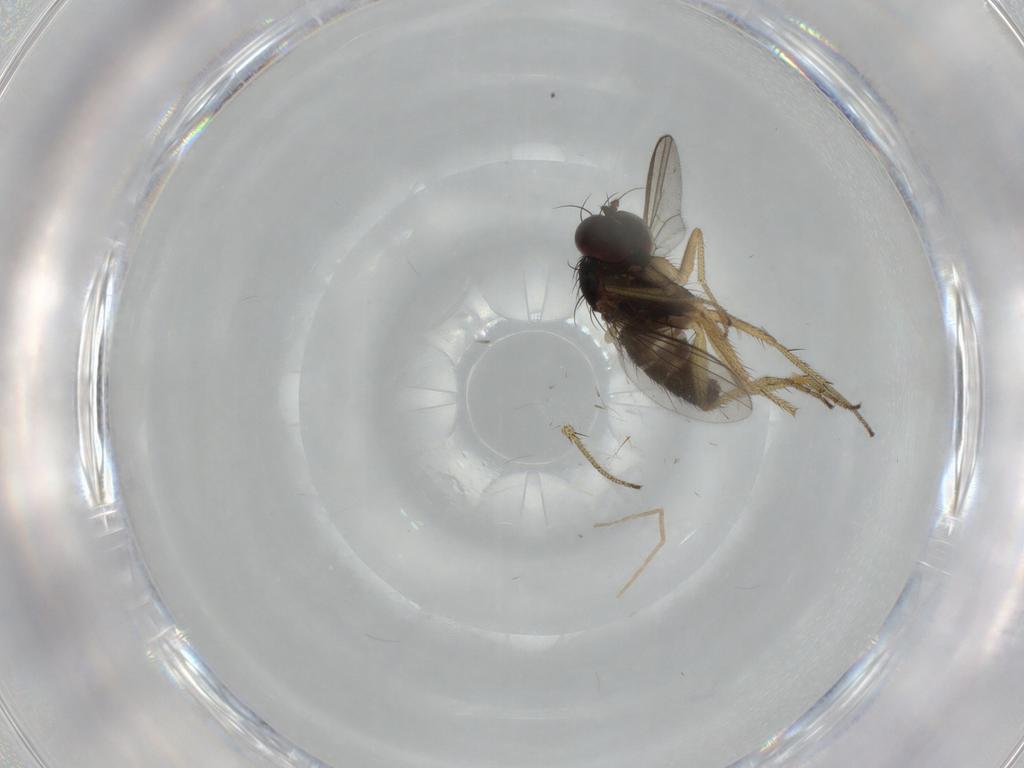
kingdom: Animalia
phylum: Arthropoda
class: Insecta
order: Diptera
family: Dolichopodidae
